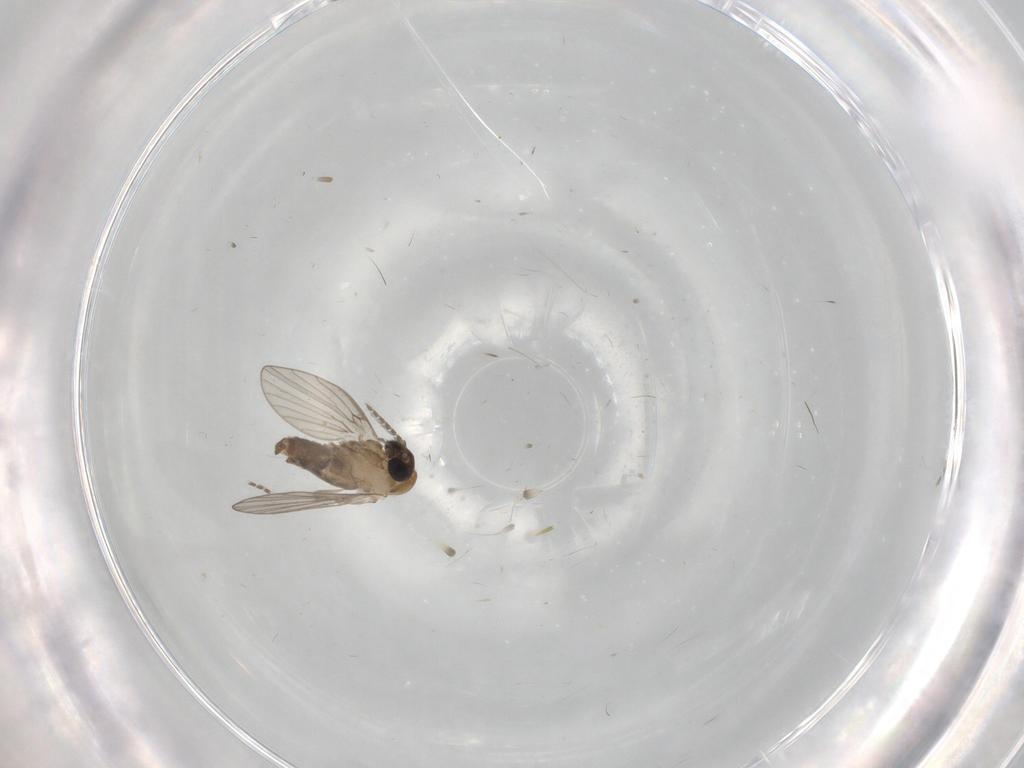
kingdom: Animalia
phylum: Arthropoda
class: Insecta
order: Diptera
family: Psychodidae
